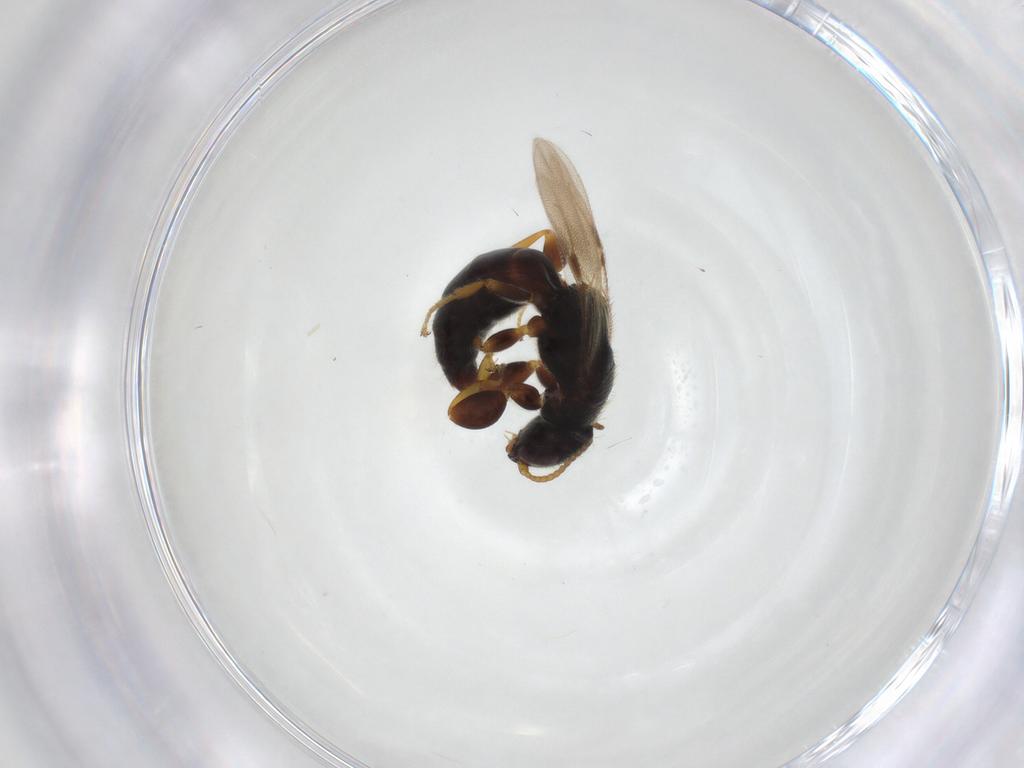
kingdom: Animalia
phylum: Arthropoda
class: Insecta
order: Hymenoptera
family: Bethylidae
